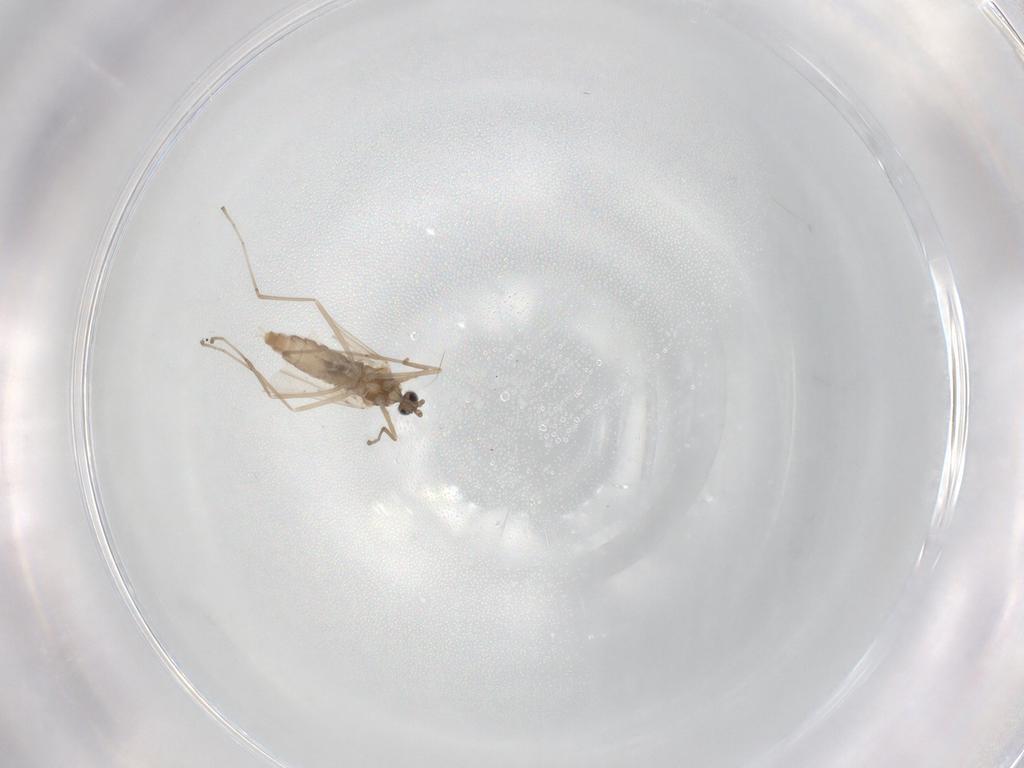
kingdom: Animalia
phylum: Arthropoda
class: Insecta
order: Diptera
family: Cecidomyiidae
